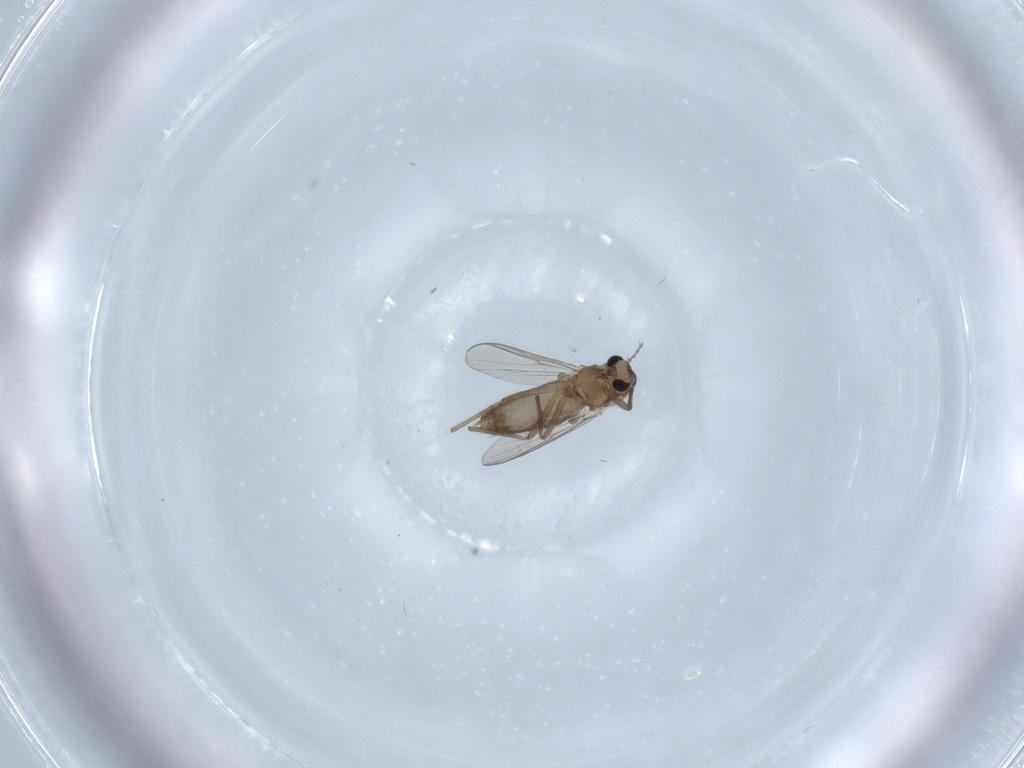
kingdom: Animalia
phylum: Arthropoda
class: Insecta
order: Diptera
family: Chironomidae
